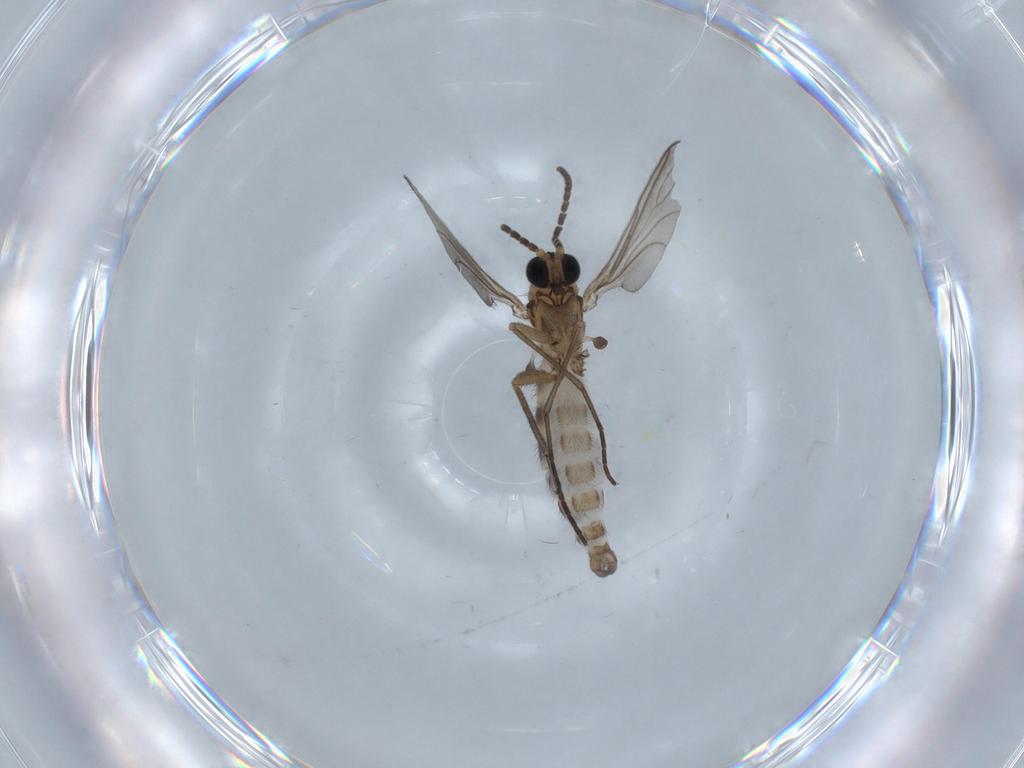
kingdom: Animalia
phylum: Arthropoda
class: Insecta
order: Diptera
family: Sciaridae
